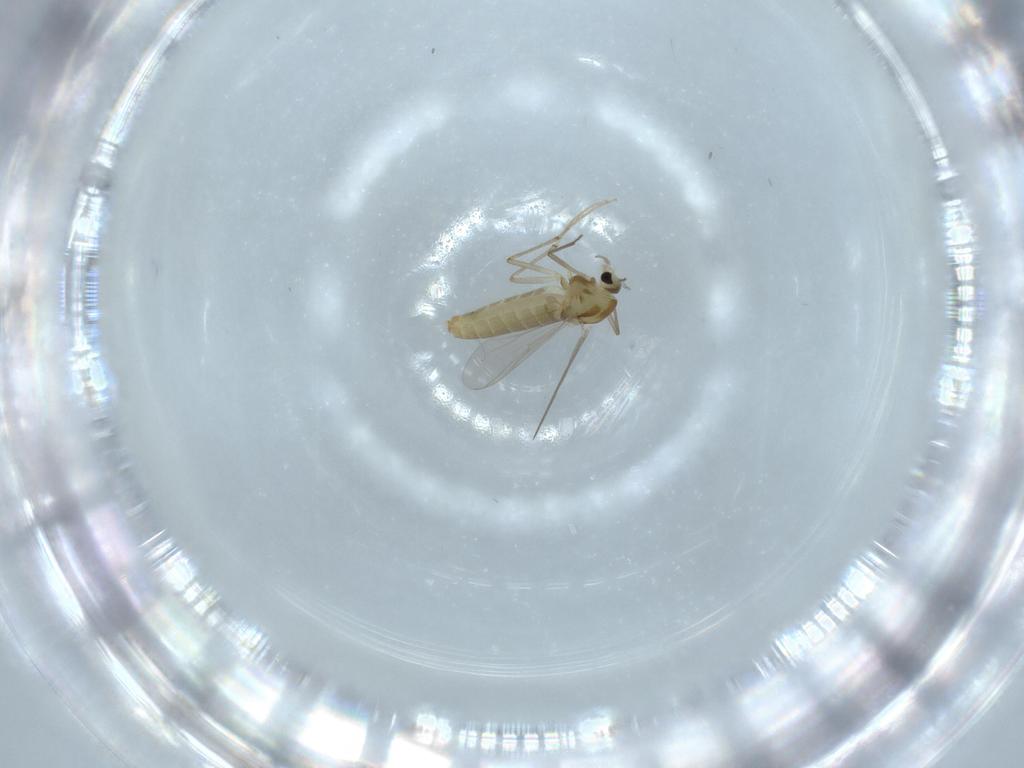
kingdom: Animalia
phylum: Arthropoda
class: Insecta
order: Diptera
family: Chironomidae
